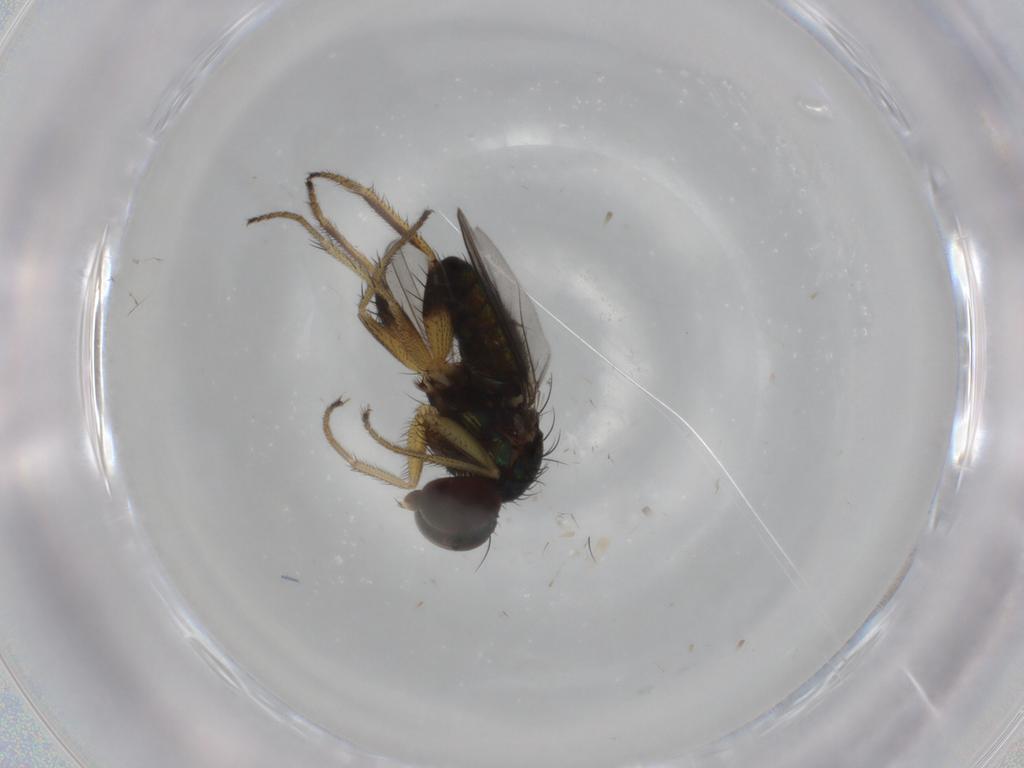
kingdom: Animalia
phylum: Arthropoda
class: Insecta
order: Diptera
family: Dolichopodidae
